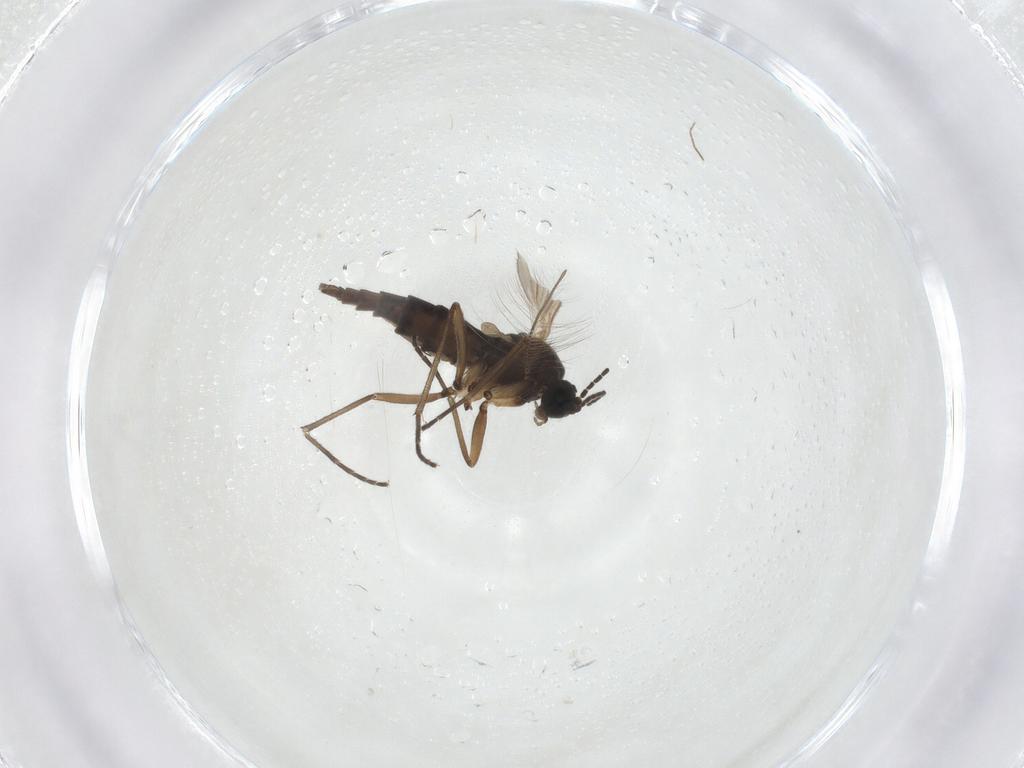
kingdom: Animalia
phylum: Arthropoda
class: Insecta
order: Diptera
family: Sciaridae
